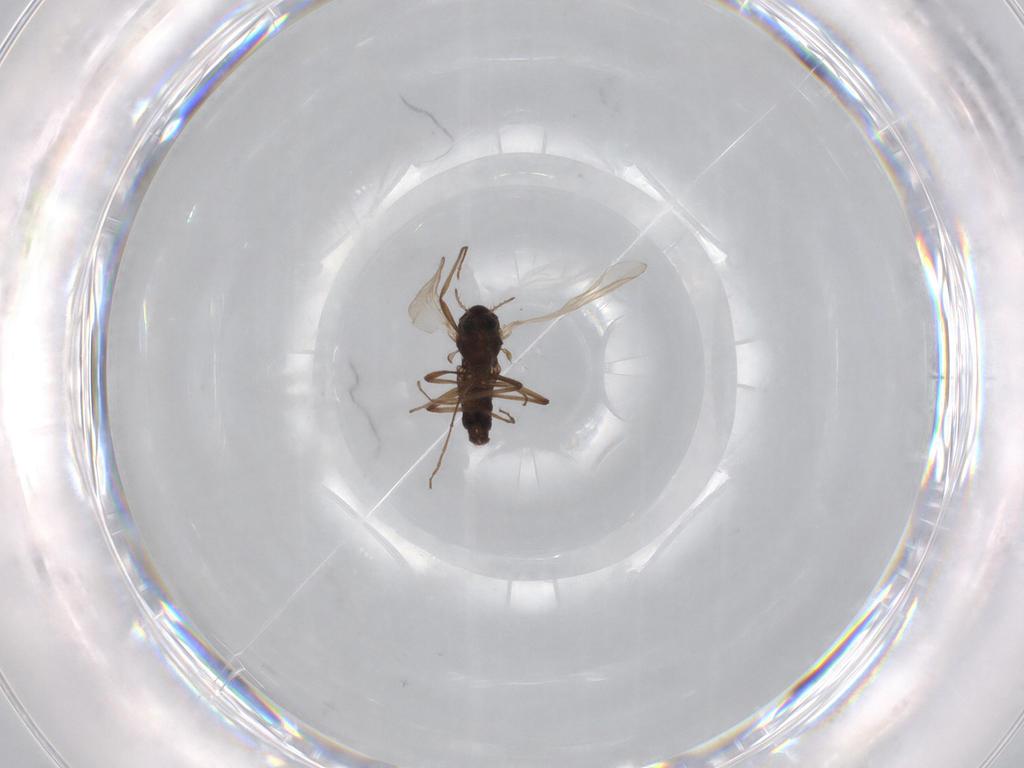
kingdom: Animalia
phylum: Arthropoda
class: Insecta
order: Diptera
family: Chironomidae
